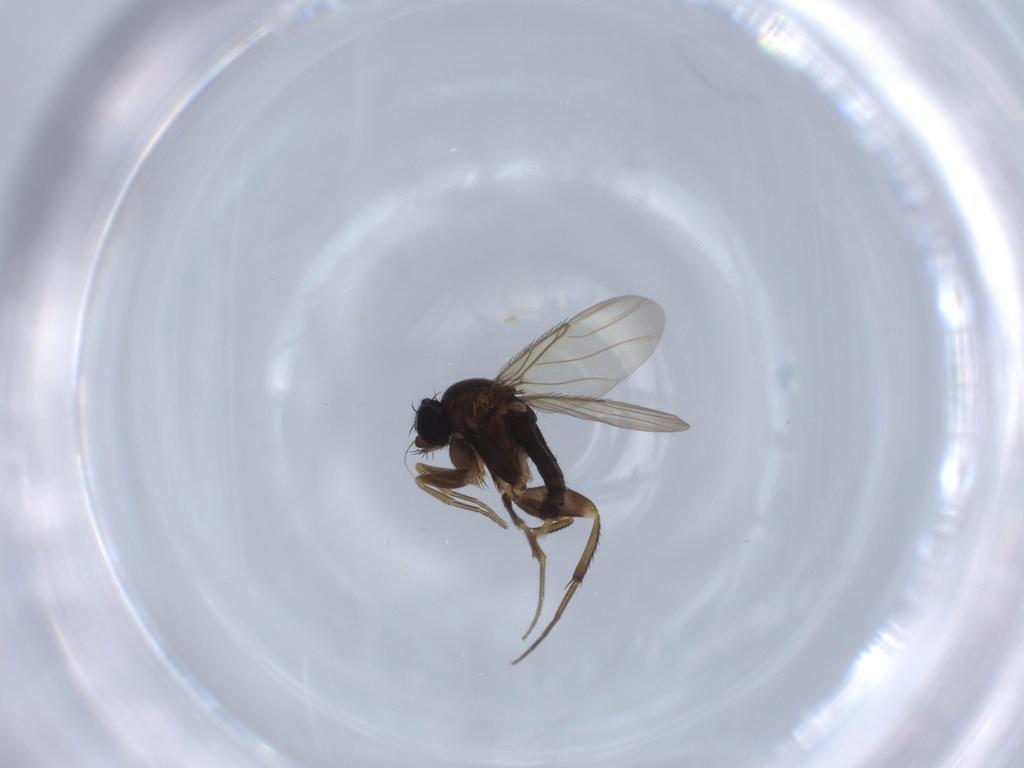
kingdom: Animalia
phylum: Arthropoda
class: Insecta
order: Diptera
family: Phoridae
